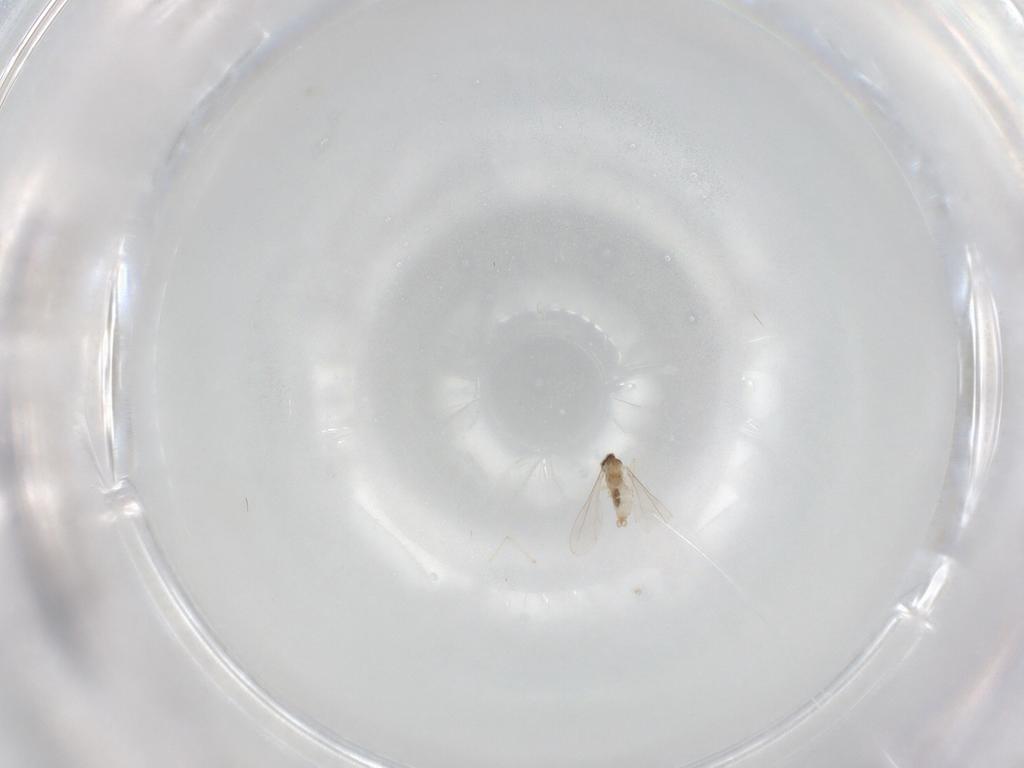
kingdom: Animalia
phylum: Arthropoda
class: Insecta
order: Diptera
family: Cecidomyiidae
